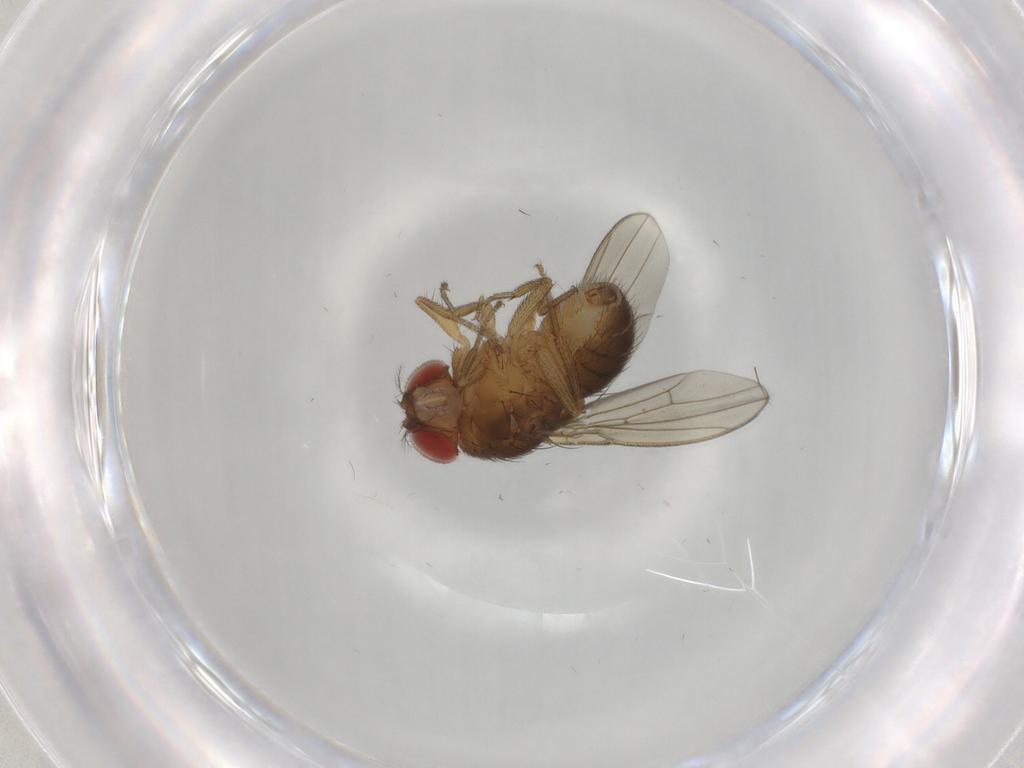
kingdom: Animalia
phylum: Arthropoda
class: Insecta
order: Diptera
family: Drosophilidae
